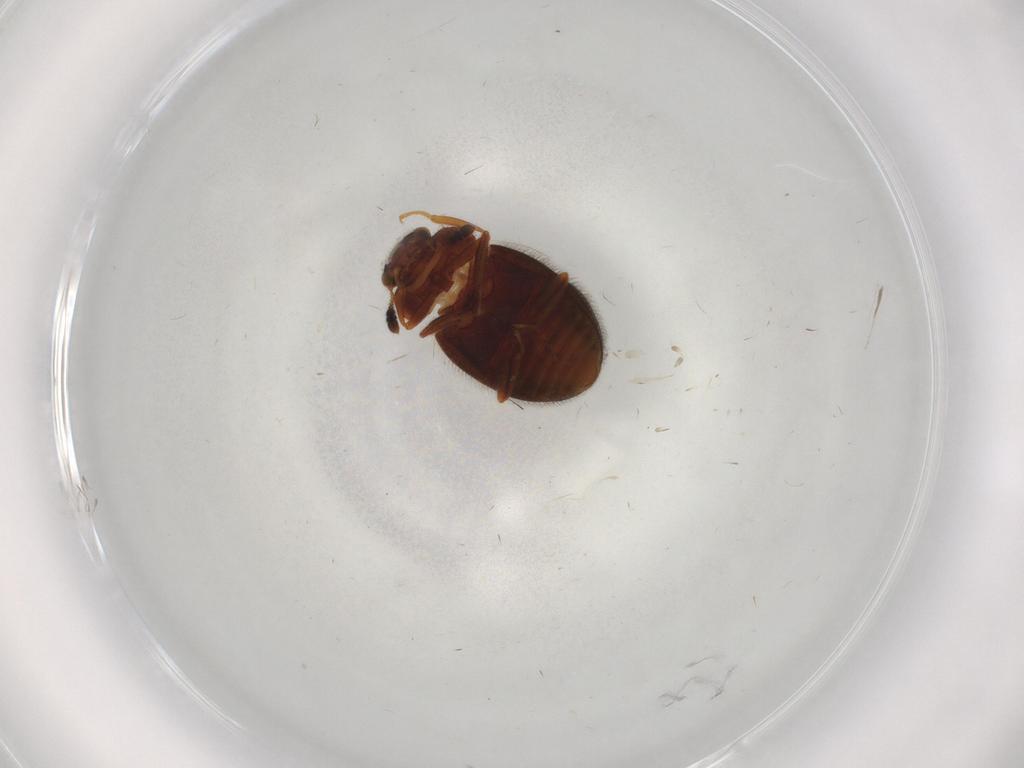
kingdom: Animalia
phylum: Arthropoda
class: Insecta
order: Coleoptera
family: Sphindidae
